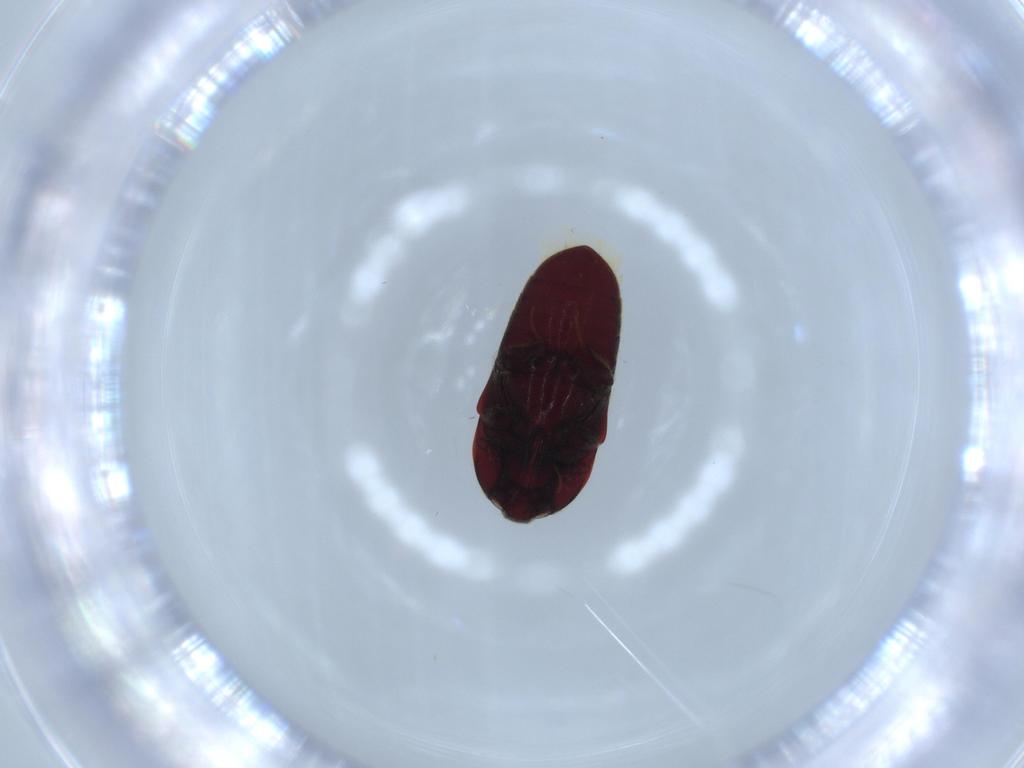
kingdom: Animalia
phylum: Arthropoda
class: Insecta
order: Coleoptera
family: Throscidae
